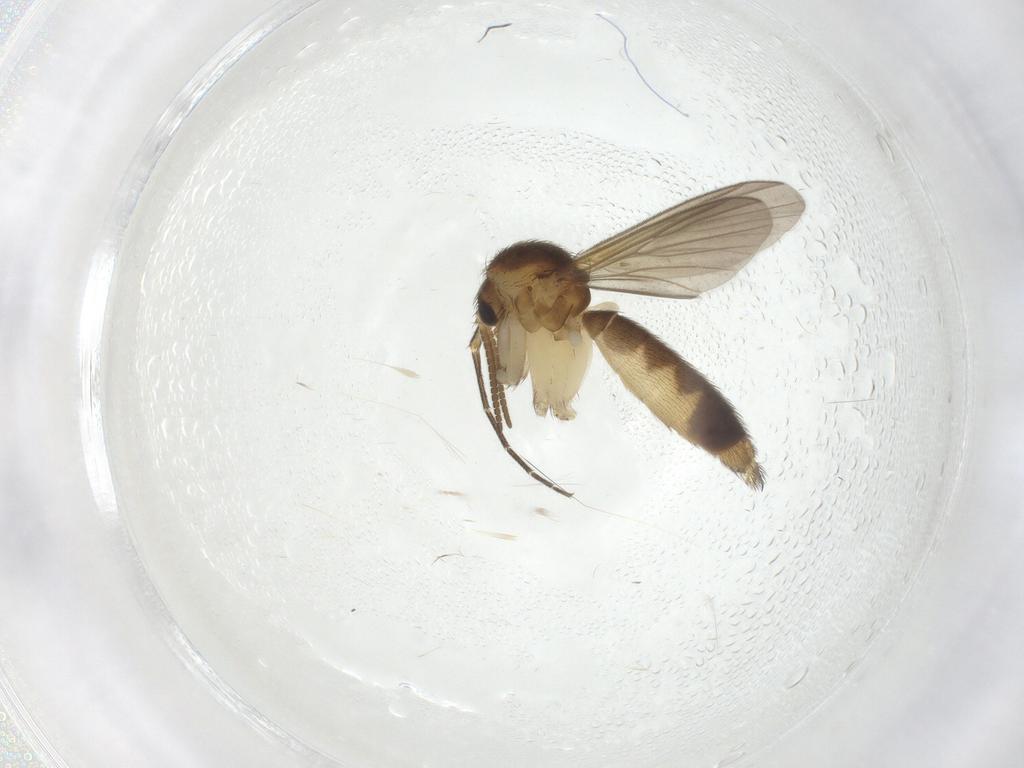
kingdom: Animalia
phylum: Arthropoda
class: Insecta
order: Diptera
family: Mycetophilidae
